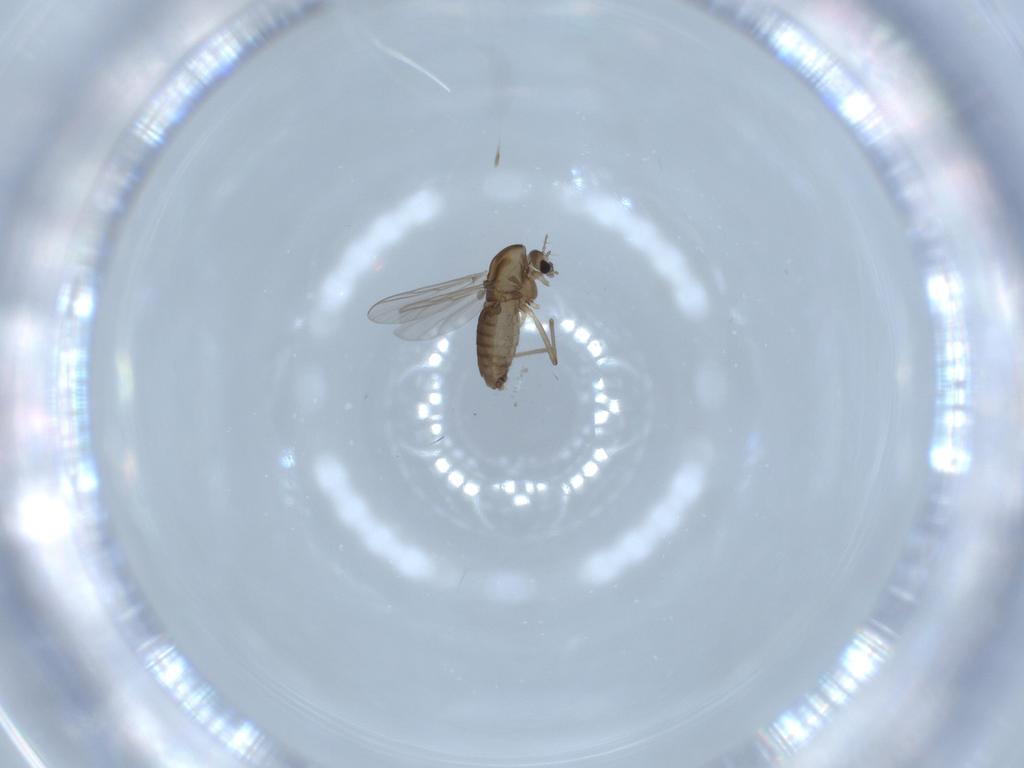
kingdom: Animalia
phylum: Arthropoda
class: Insecta
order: Diptera
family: Chironomidae
